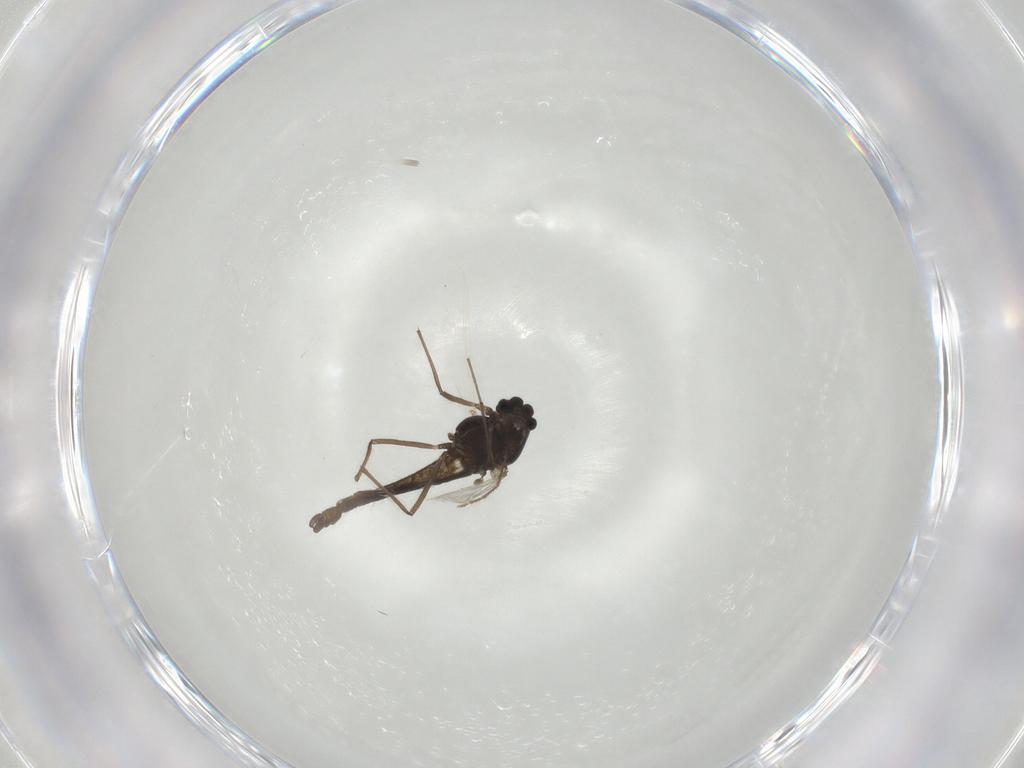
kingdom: Animalia
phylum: Arthropoda
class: Insecta
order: Diptera
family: Chironomidae
